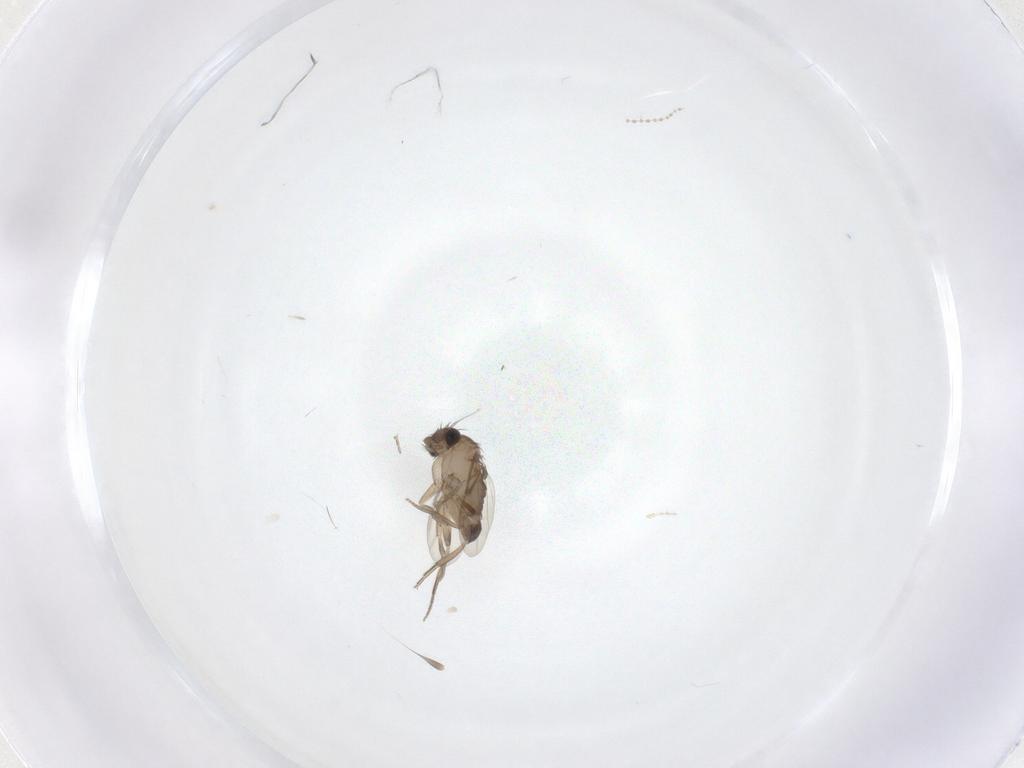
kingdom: Animalia
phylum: Arthropoda
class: Insecta
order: Diptera
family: Phoridae
